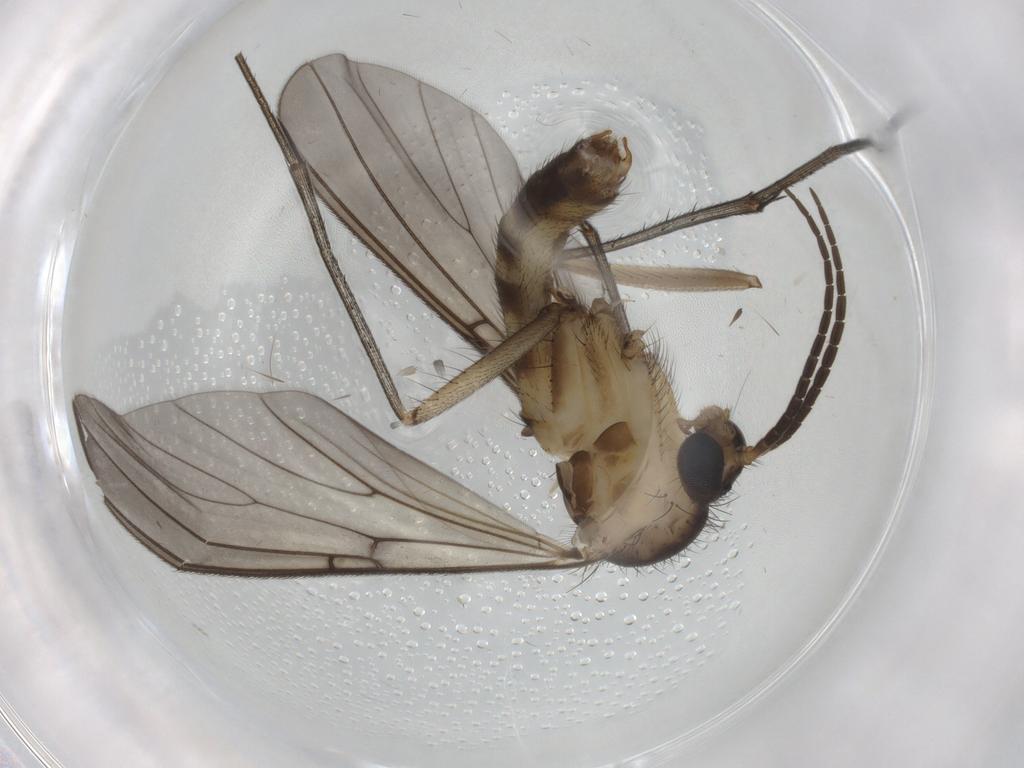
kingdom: Animalia
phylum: Arthropoda
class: Insecta
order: Diptera
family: Mycetophilidae
